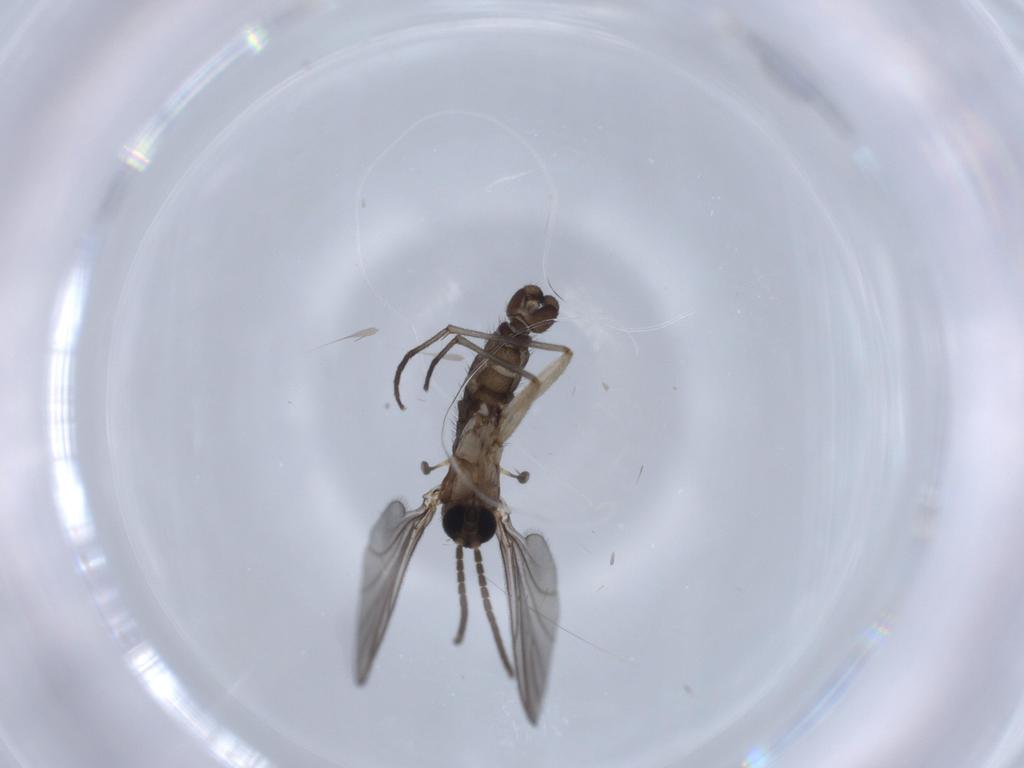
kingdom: Animalia
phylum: Arthropoda
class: Insecta
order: Diptera
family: Sciaridae
